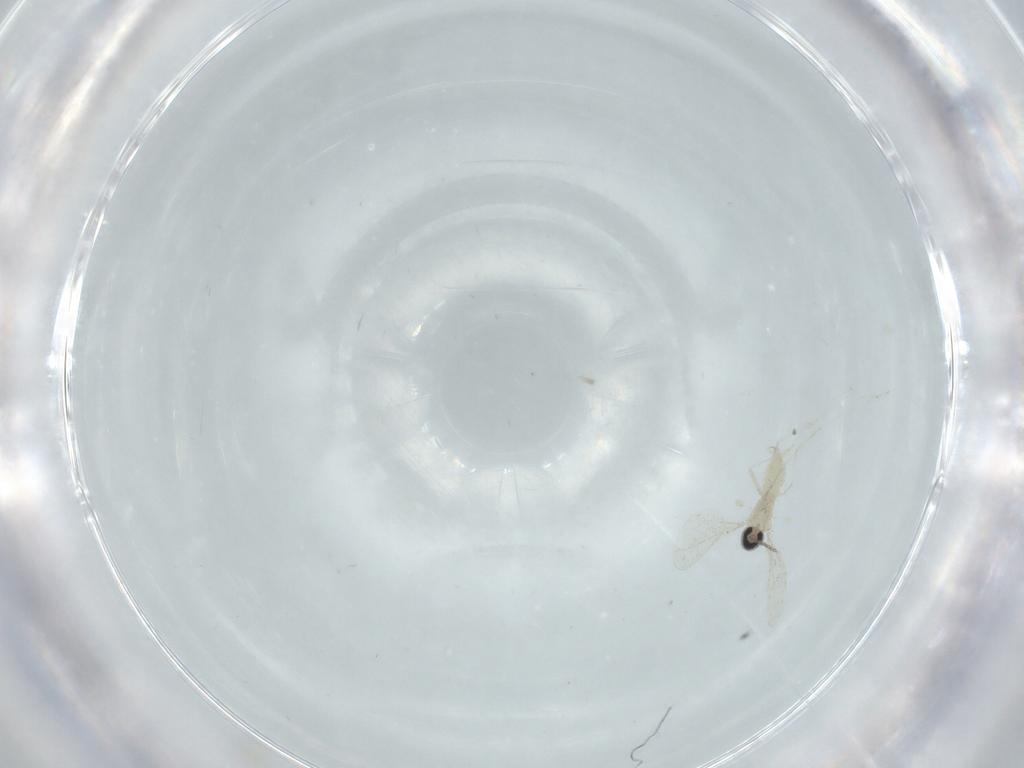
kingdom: Animalia
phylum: Arthropoda
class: Insecta
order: Diptera
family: Cecidomyiidae
